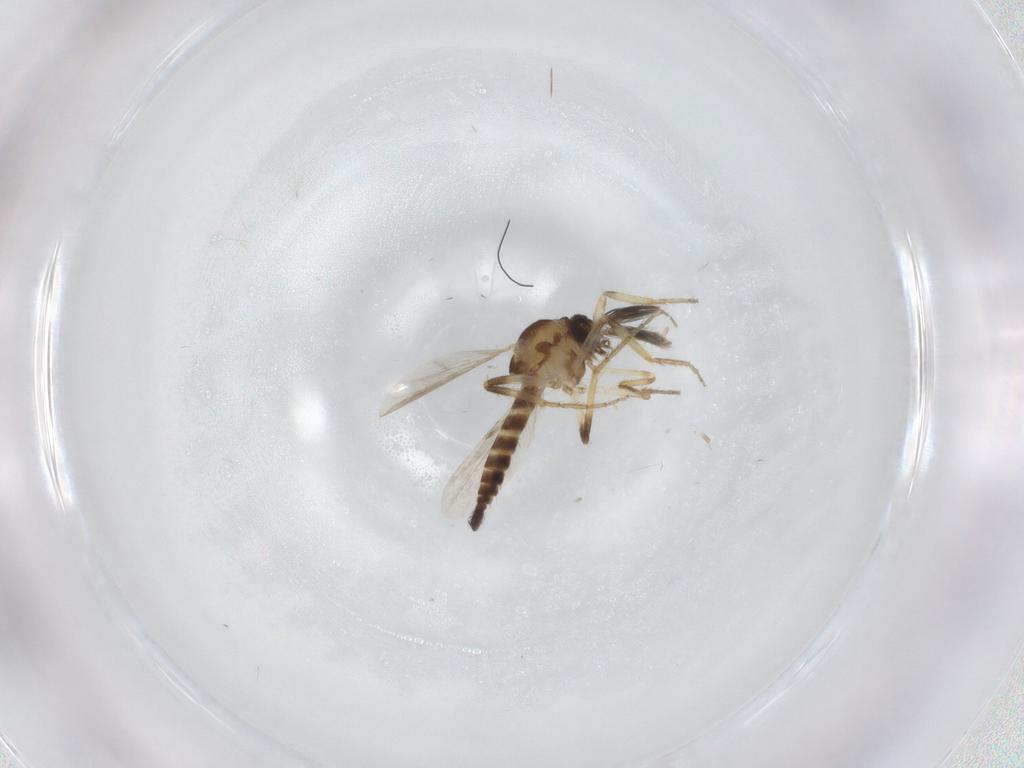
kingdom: Animalia
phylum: Arthropoda
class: Insecta
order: Diptera
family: Ceratopogonidae
